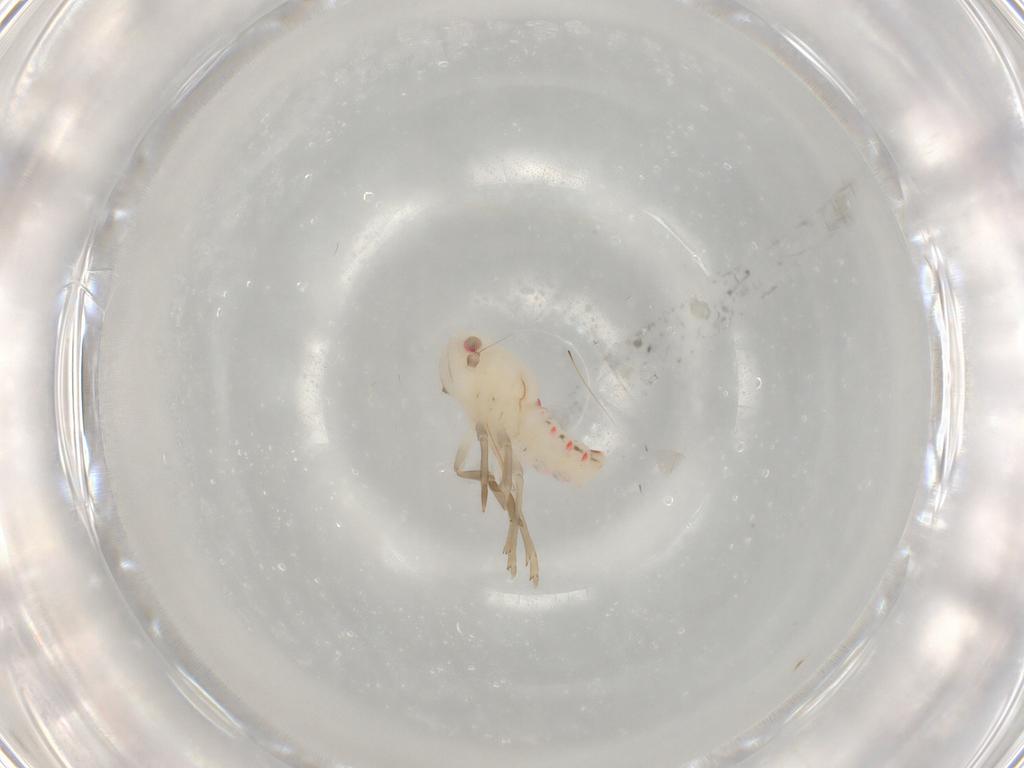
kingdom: Animalia
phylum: Arthropoda
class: Insecta
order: Hemiptera
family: Nogodinidae
